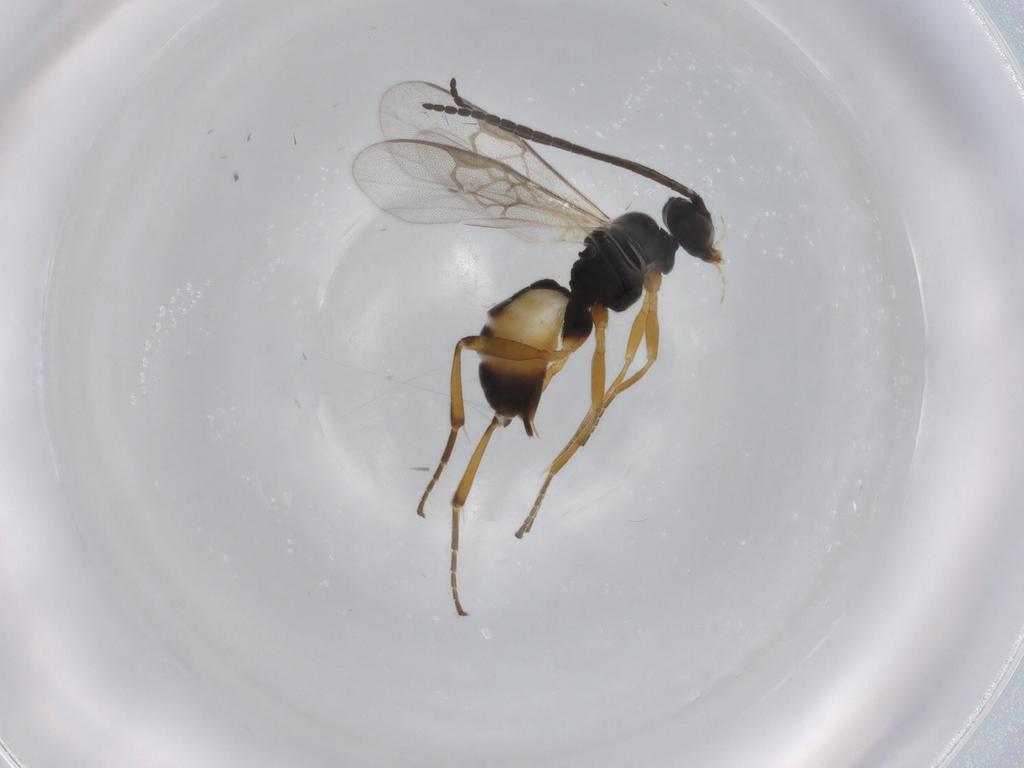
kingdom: Animalia
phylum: Arthropoda
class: Insecta
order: Hymenoptera
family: Braconidae
